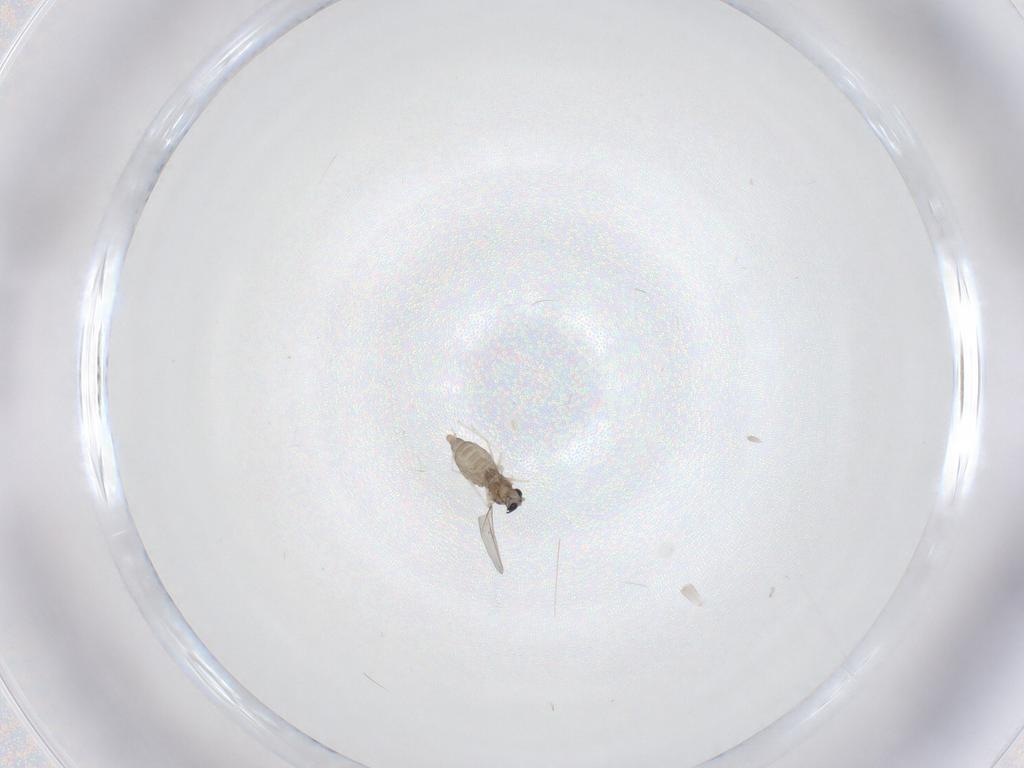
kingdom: Animalia
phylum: Arthropoda
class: Insecta
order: Diptera
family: Cecidomyiidae
